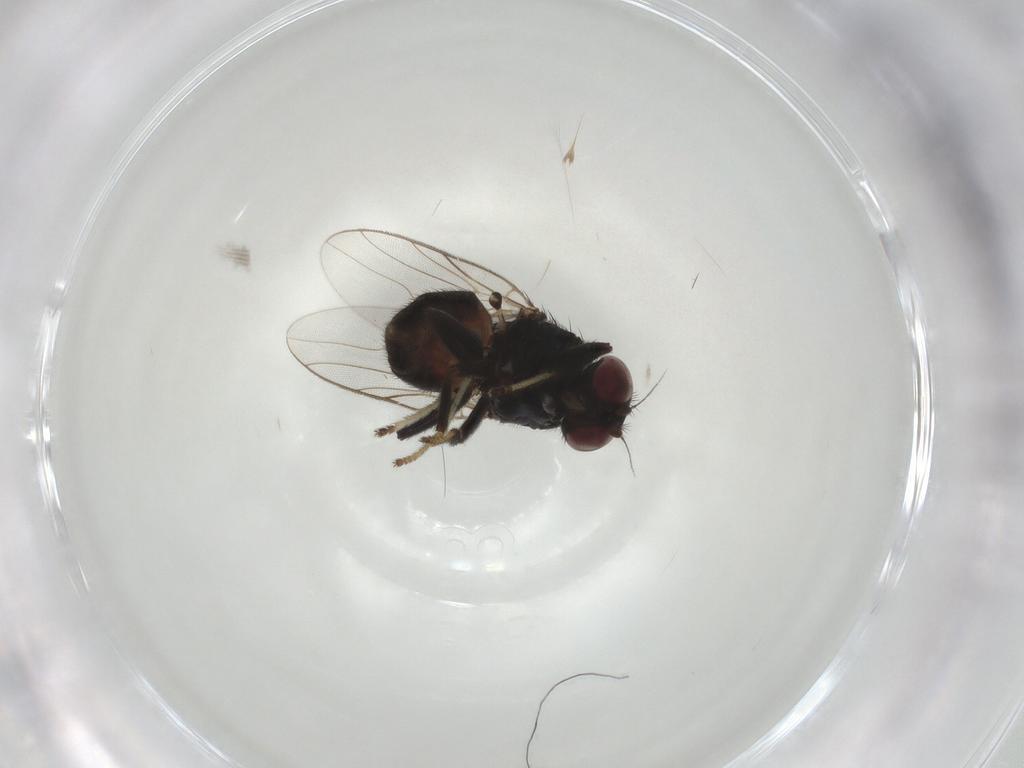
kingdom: Animalia
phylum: Arthropoda
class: Insecta
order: Diptera
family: Chloropidae
